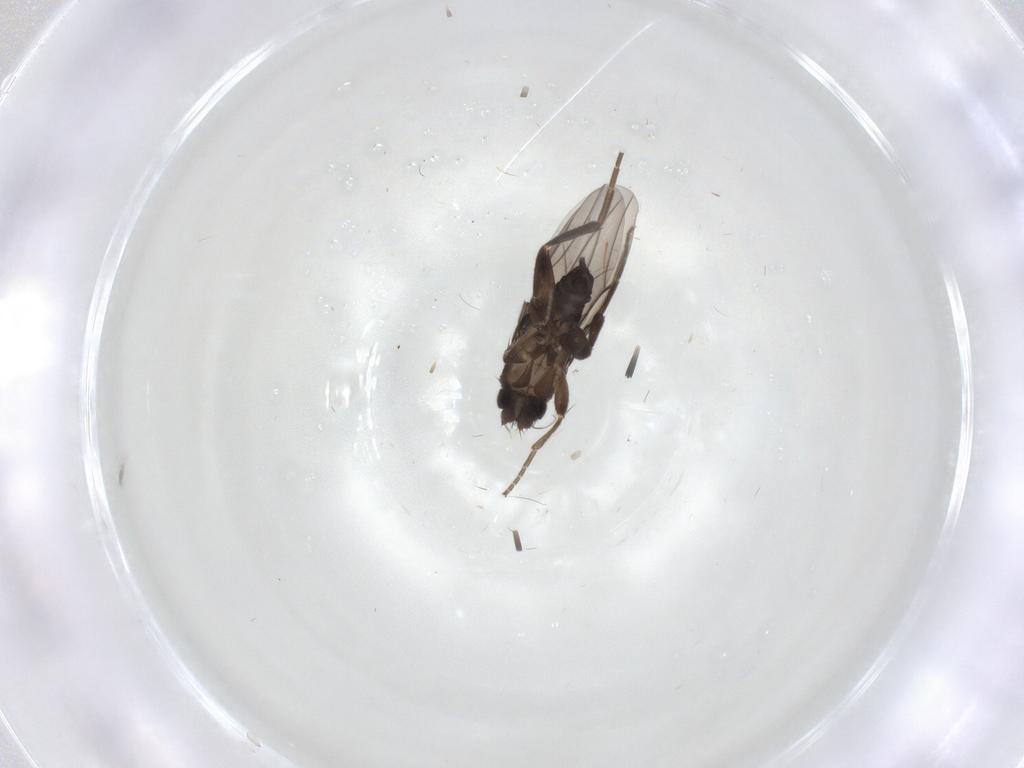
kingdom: Animalia
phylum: Arthropoda
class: Insecta
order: Diptera
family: Phoridae
